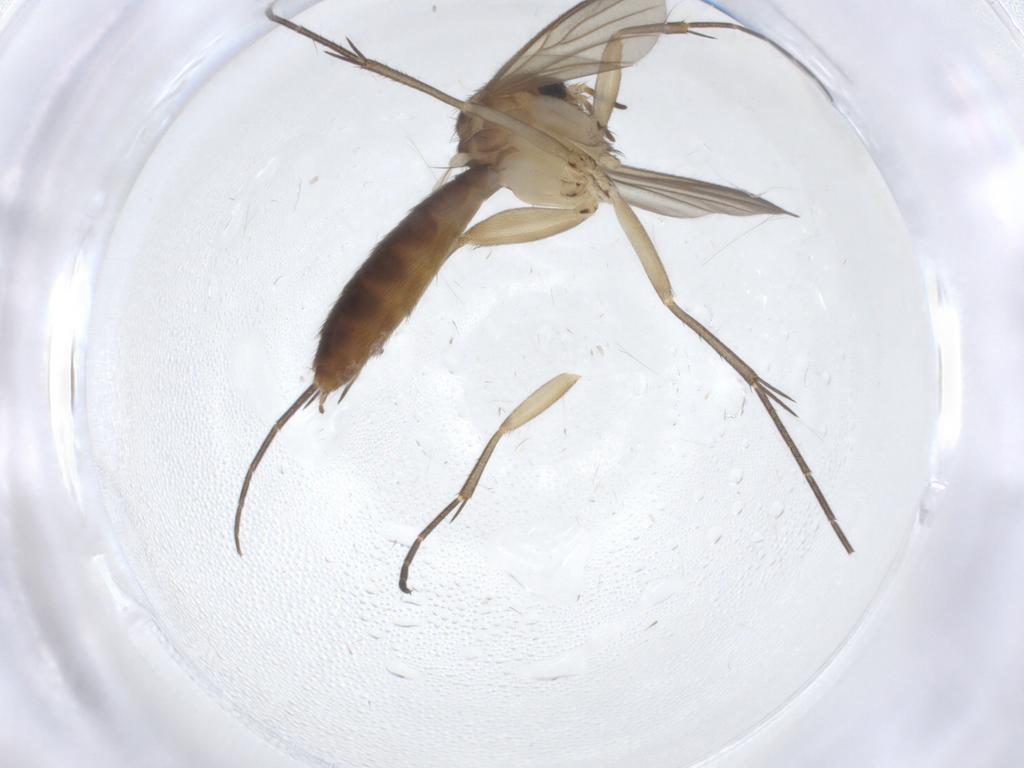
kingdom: Animalia
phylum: Arthropoda
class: Insecta
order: Diptera
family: Mycetophilidae
